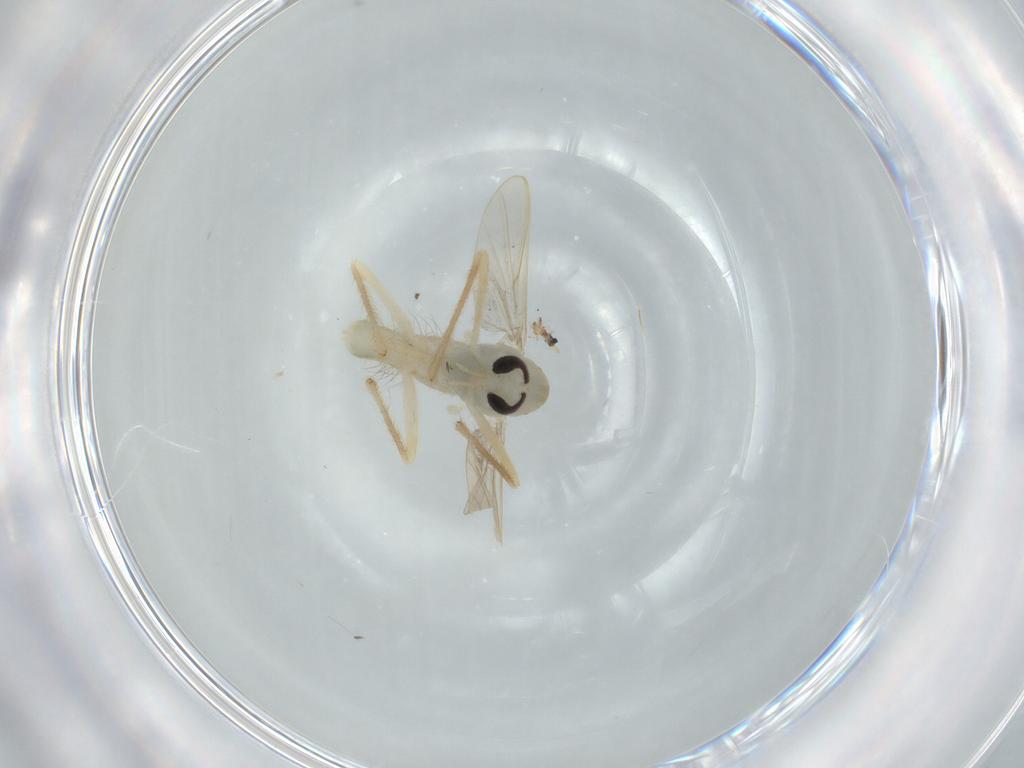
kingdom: Animalia
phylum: Arthropoda
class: Insecta
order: Diptera
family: Chironomidae
